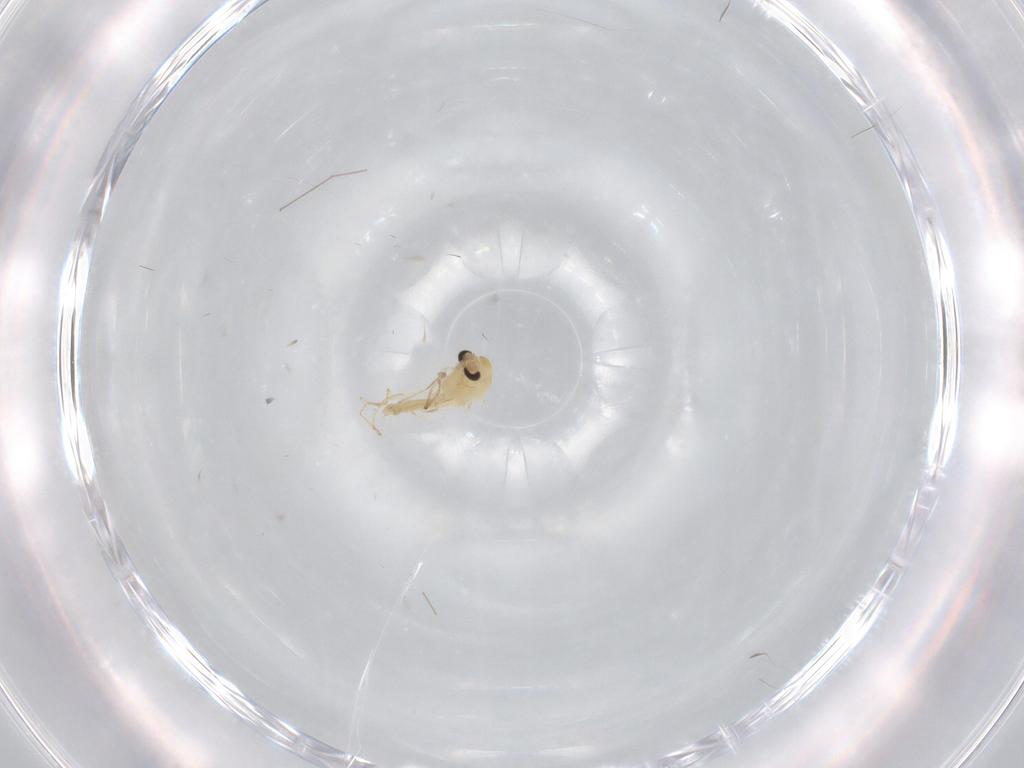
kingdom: Animalia
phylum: Arthropoda
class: Insecta
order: Diptera
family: Chironomidae
